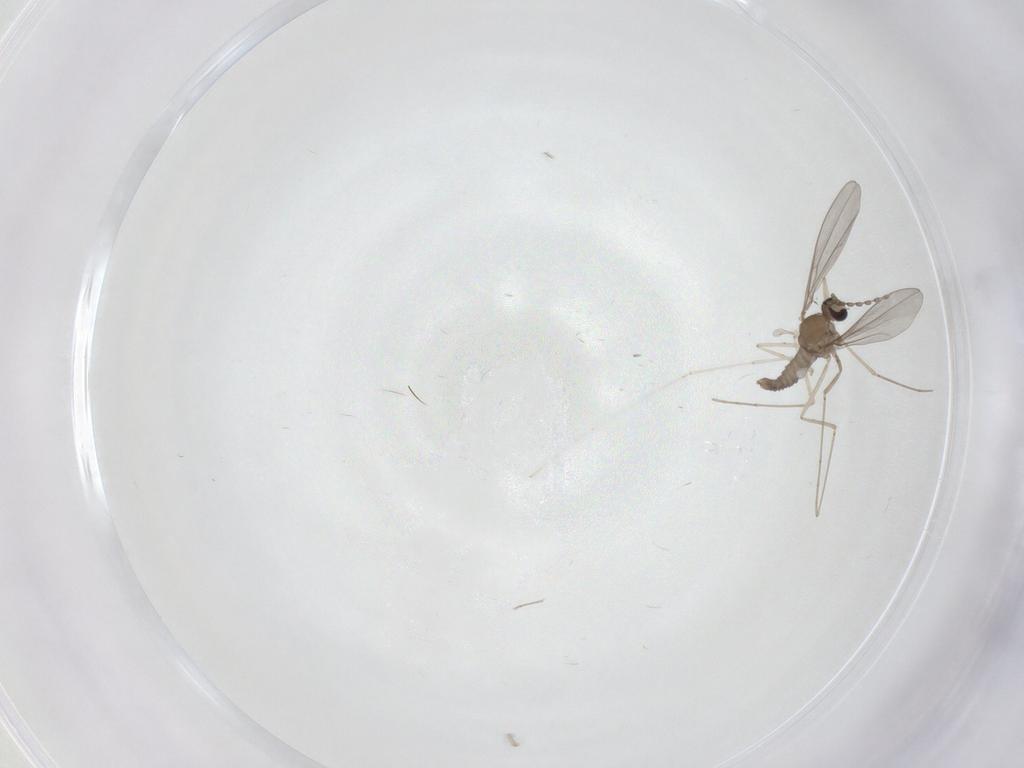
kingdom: Animalia
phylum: Arthropoda
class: Insecta
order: Diptera
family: Cecidomyiidae
